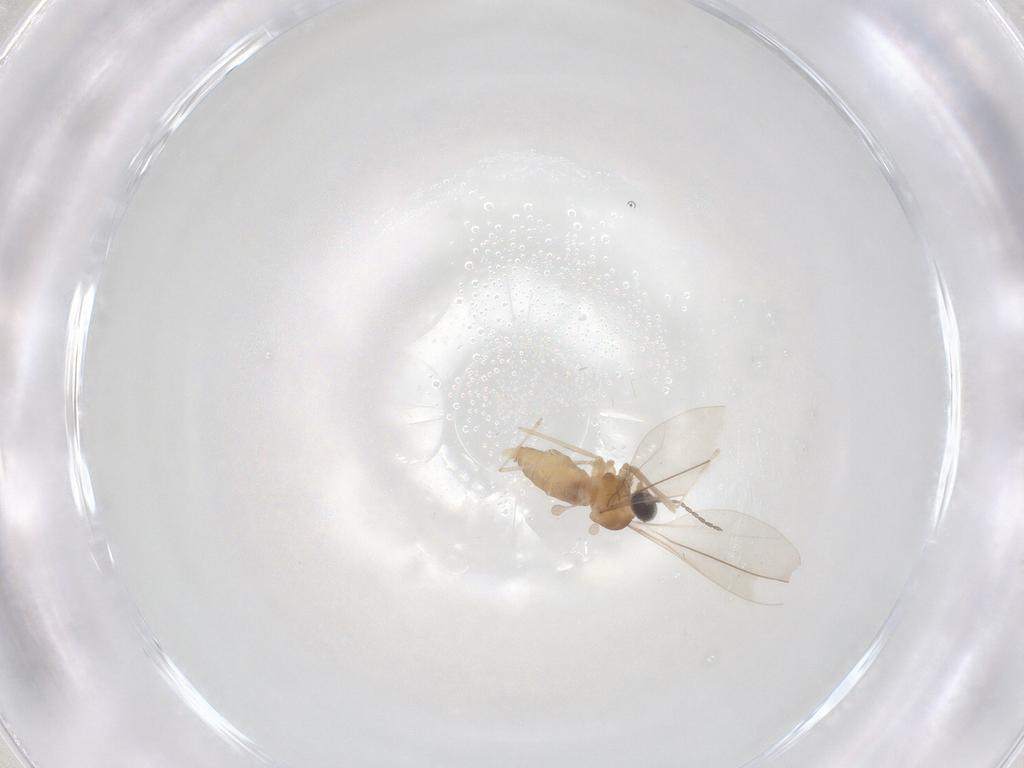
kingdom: Animalia
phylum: Arthropoda
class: Insecta
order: Diptera
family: Cecidomyiidae
